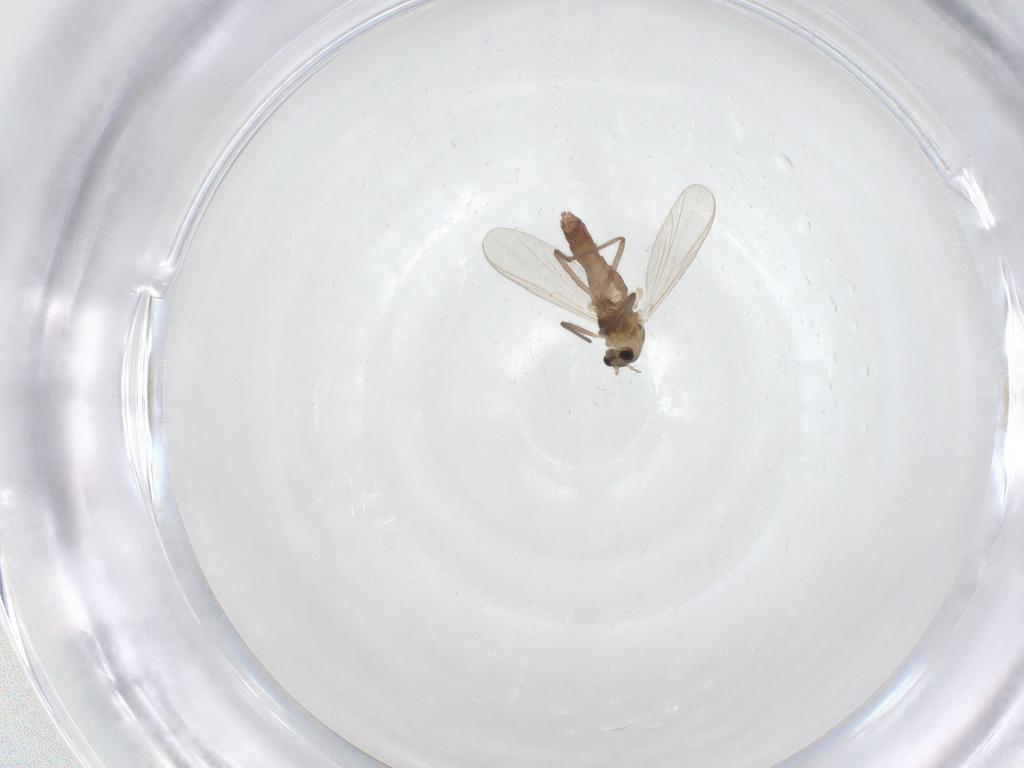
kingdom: Animalia
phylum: Arthropoda
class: Insecta
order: Diptera
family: Chironomidae
